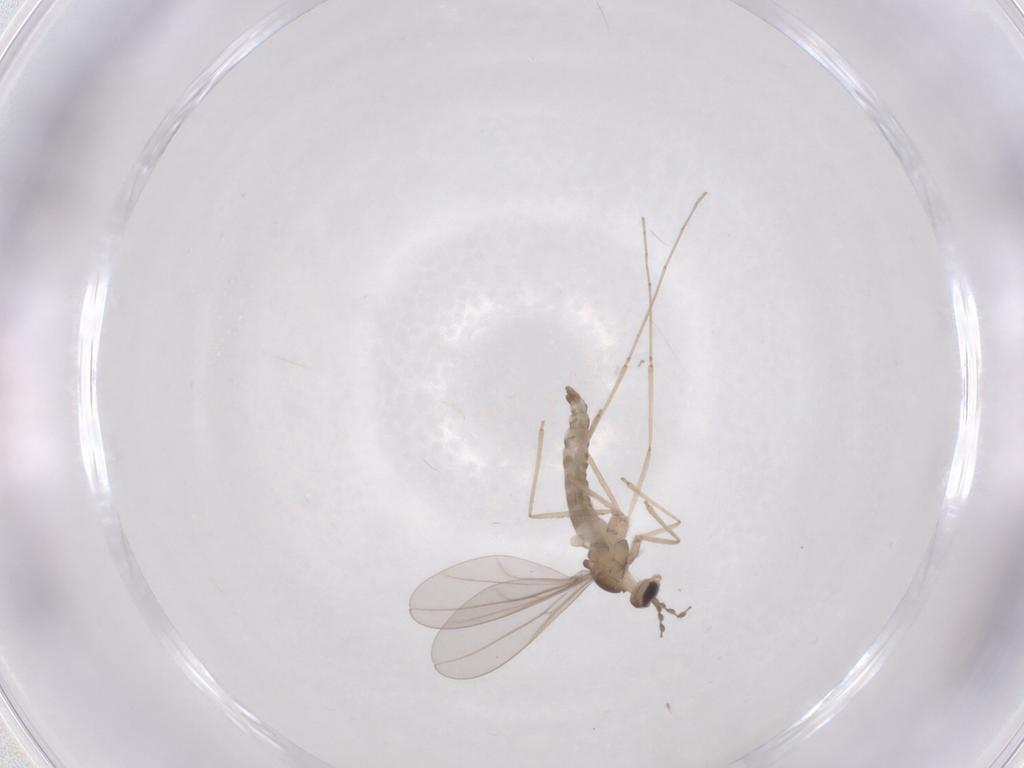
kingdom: Animalia
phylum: Arthropoda
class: Insecta
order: Diptera
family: Cecidomyiidae
